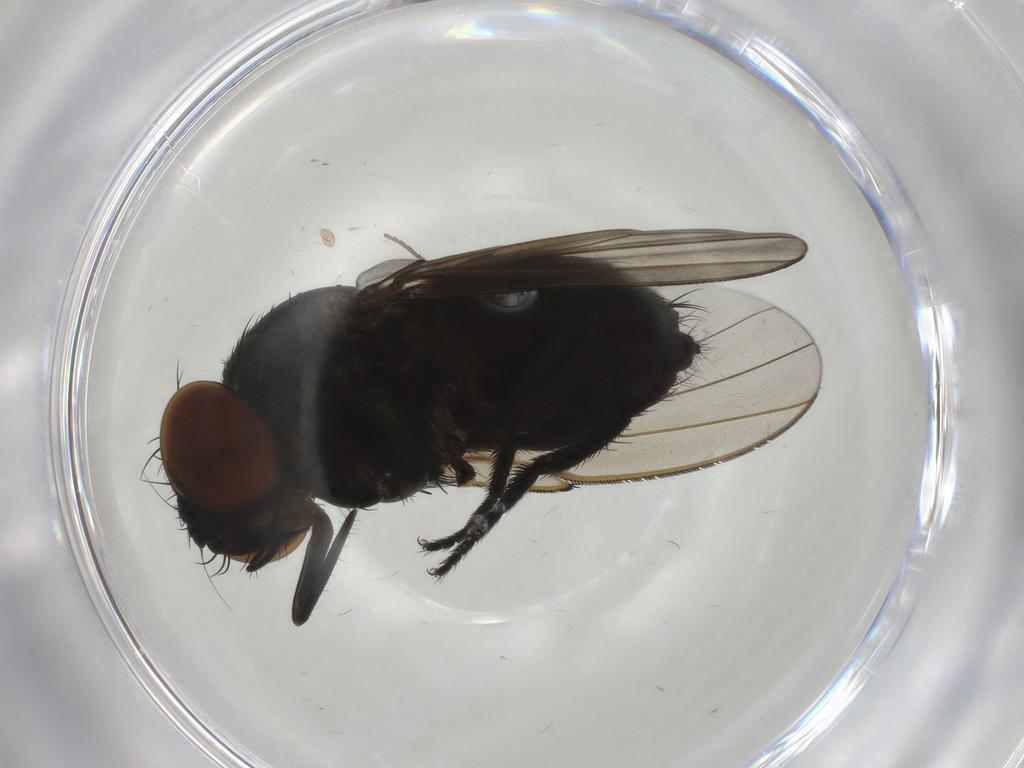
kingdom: Animalia
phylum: Arthropoda
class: Insecta
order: Diptera
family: Milichiidae
